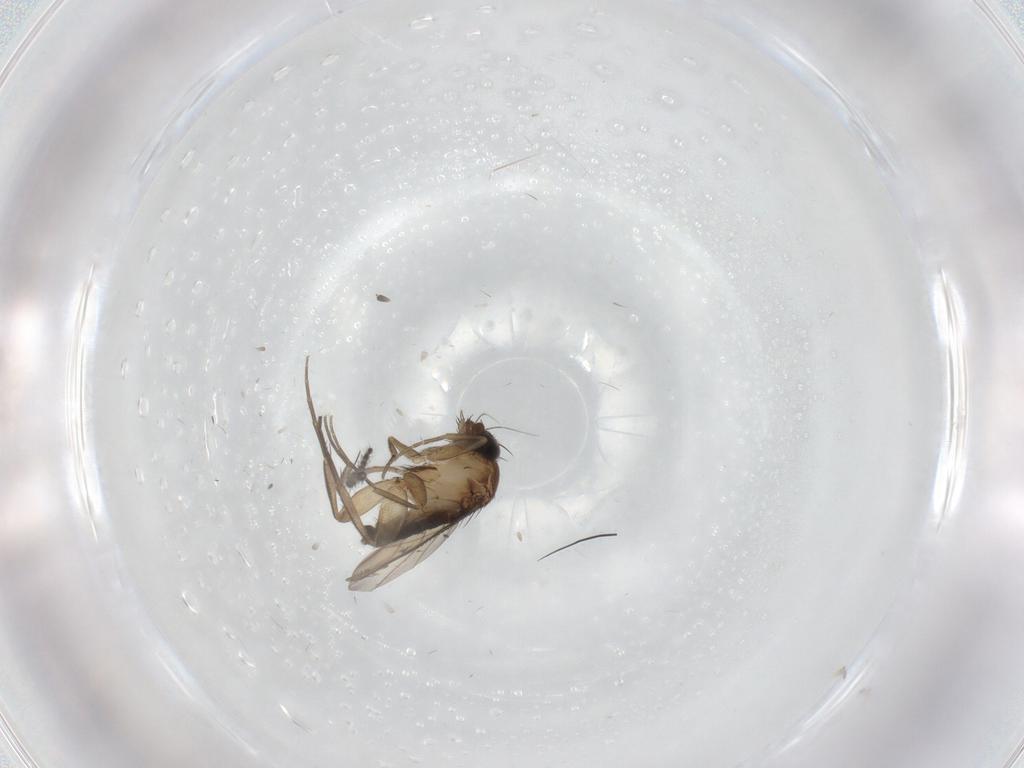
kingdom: Animalia
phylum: Arthropoda
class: Insecta
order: Diptera
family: Phoridae
